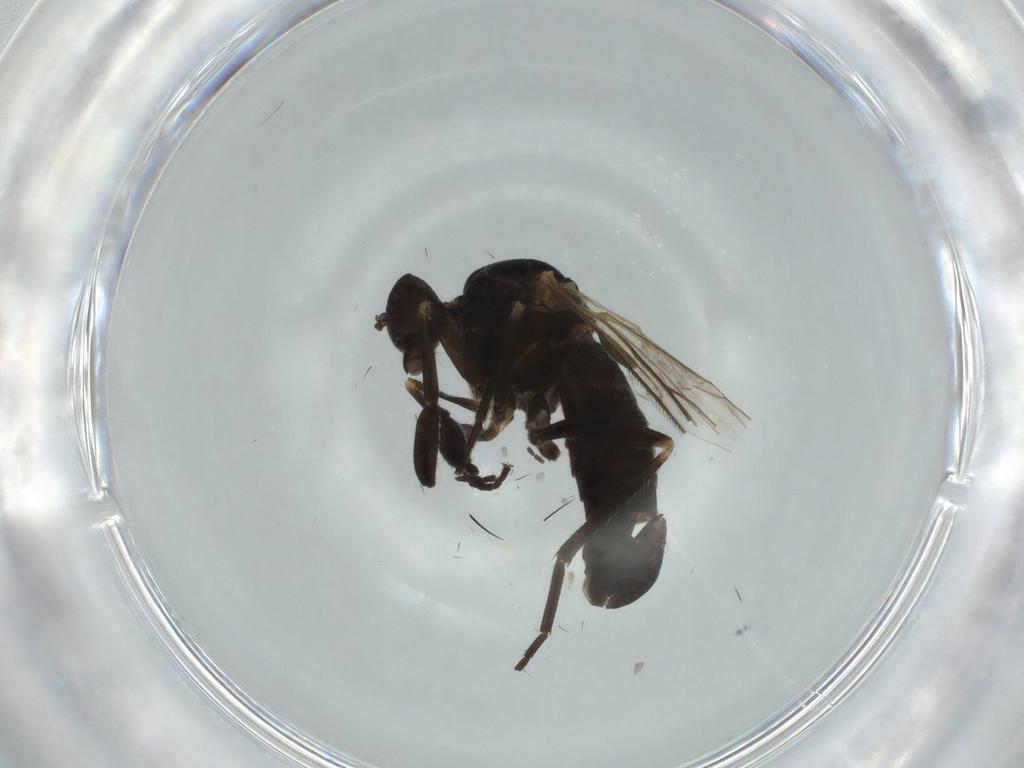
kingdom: Animalia
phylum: Arthropoda
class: Insecta
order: Diptera
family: Empididae
